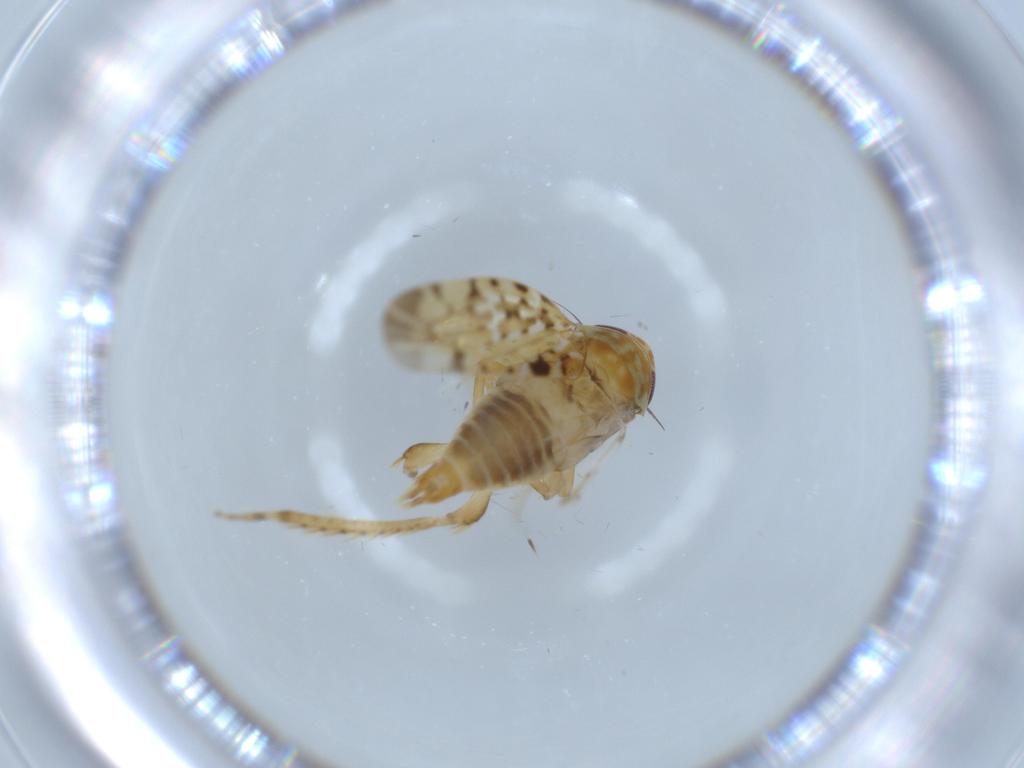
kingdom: Animalia
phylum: Arthropoda
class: Insecta
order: Hemiptera
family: Cicadellidae
